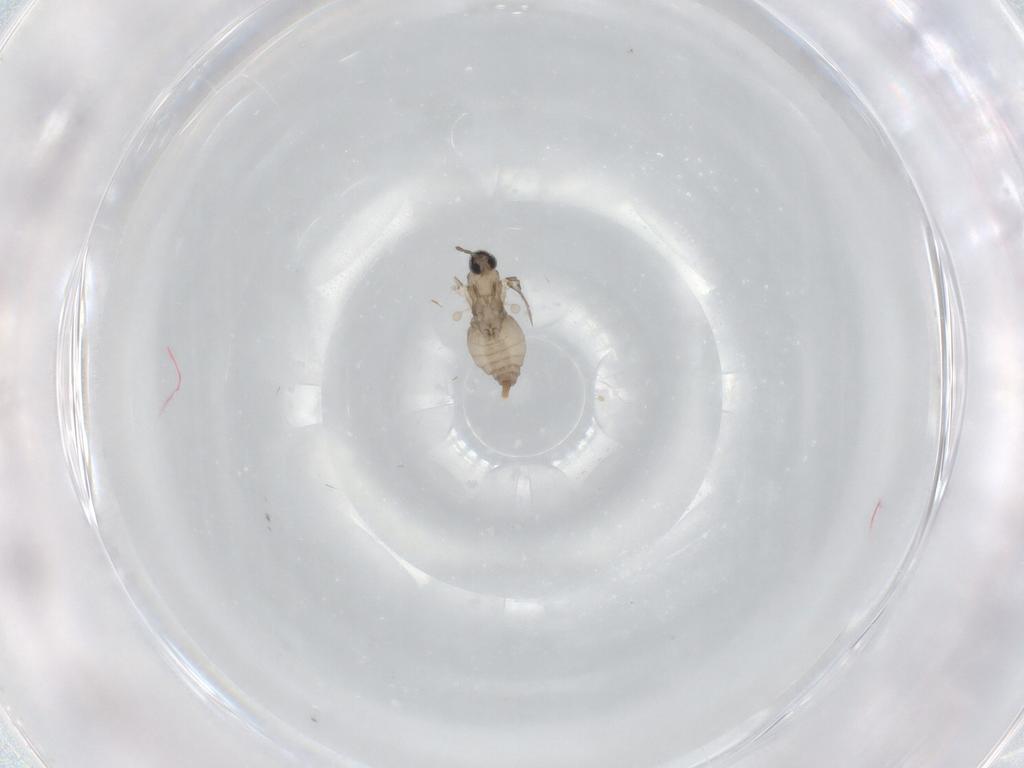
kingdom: Animalia
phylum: Arthropoda
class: Insecta
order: Diptera
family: Cecidomyiidae
